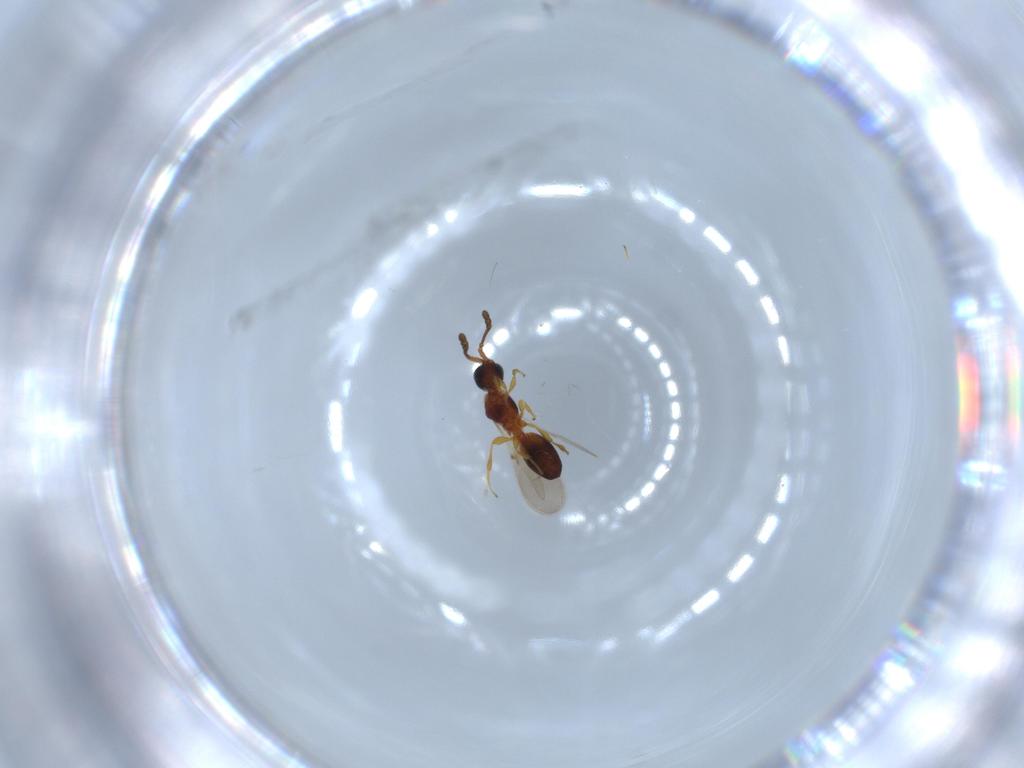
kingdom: Animalia
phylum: Arthropoda
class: Insecta
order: Hymenoptera
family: Diapriidae
